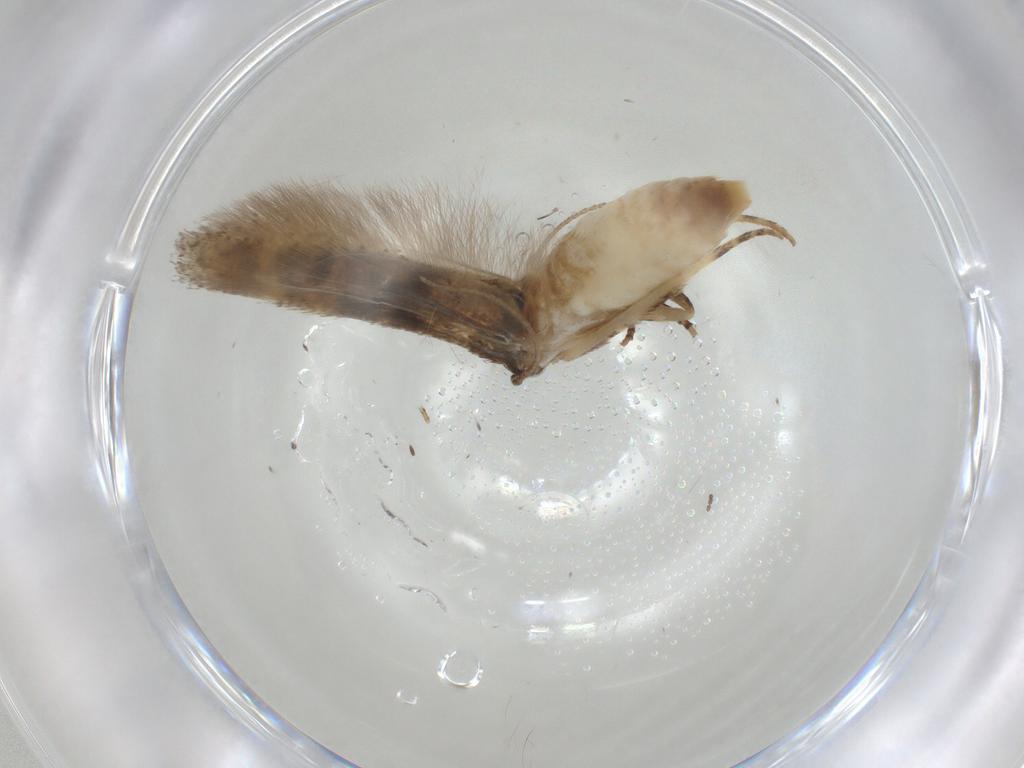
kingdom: Animalia
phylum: Arthropoda
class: Insecta
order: Lepidoptera
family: Gelechiidae
